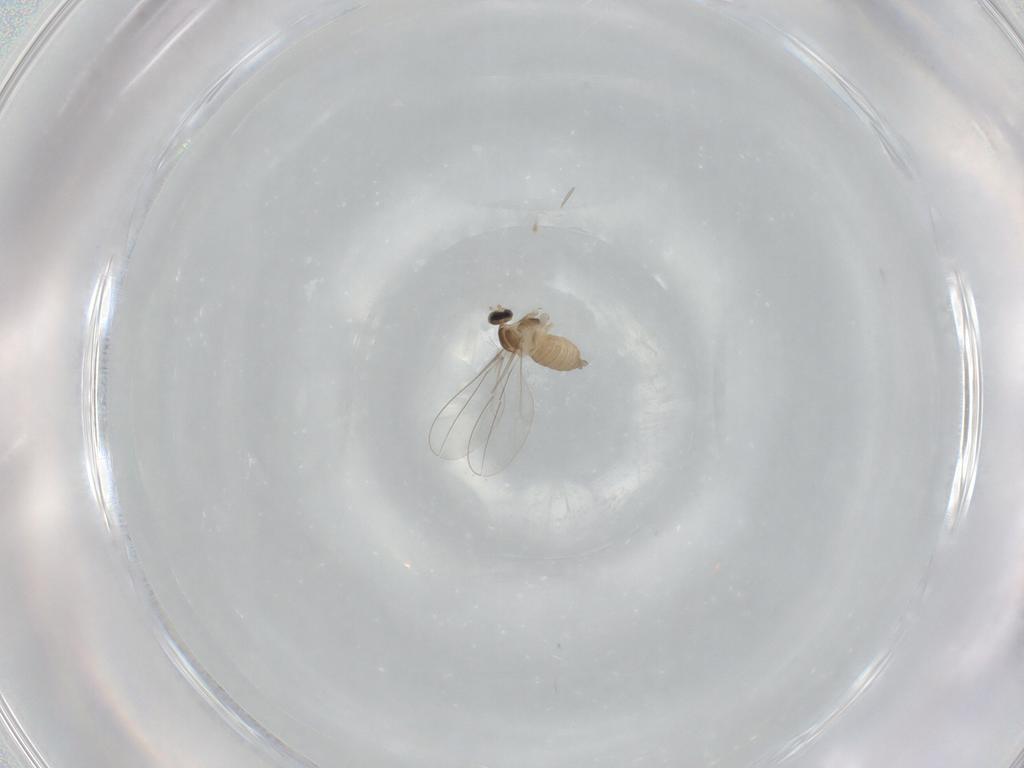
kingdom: Animalia
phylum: Arthropoda
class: Insecta
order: Diptera
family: Cecidomyiidae
